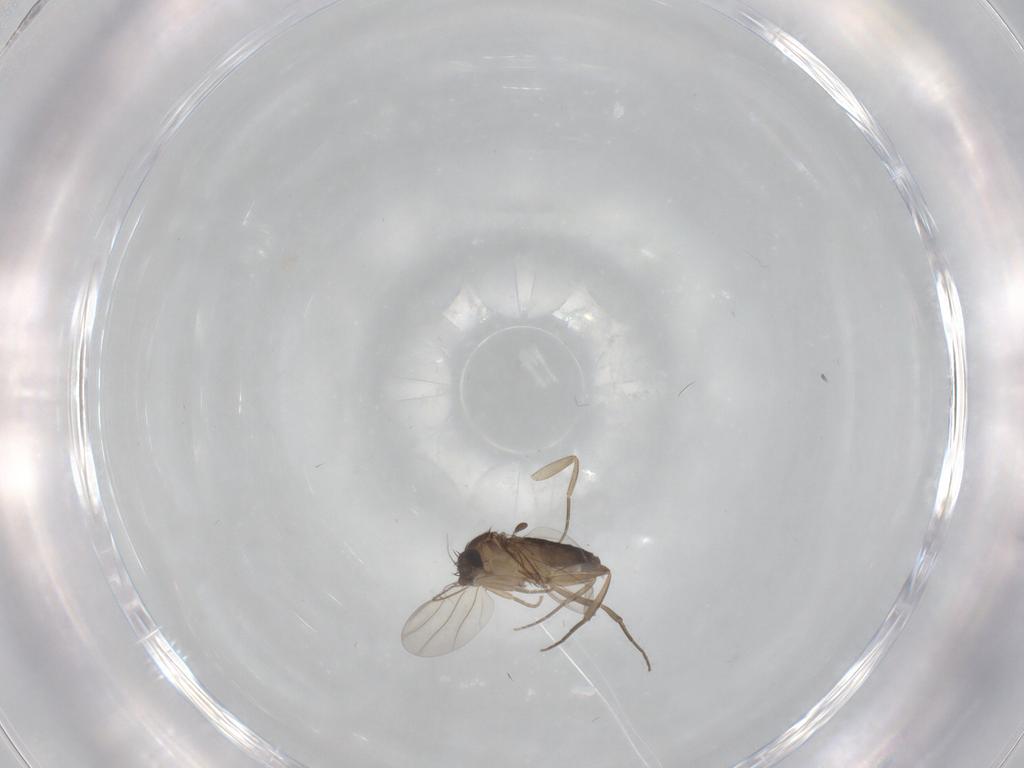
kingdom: Animalia
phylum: Arthropoda
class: Insecta
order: Diptera
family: Phoridae
